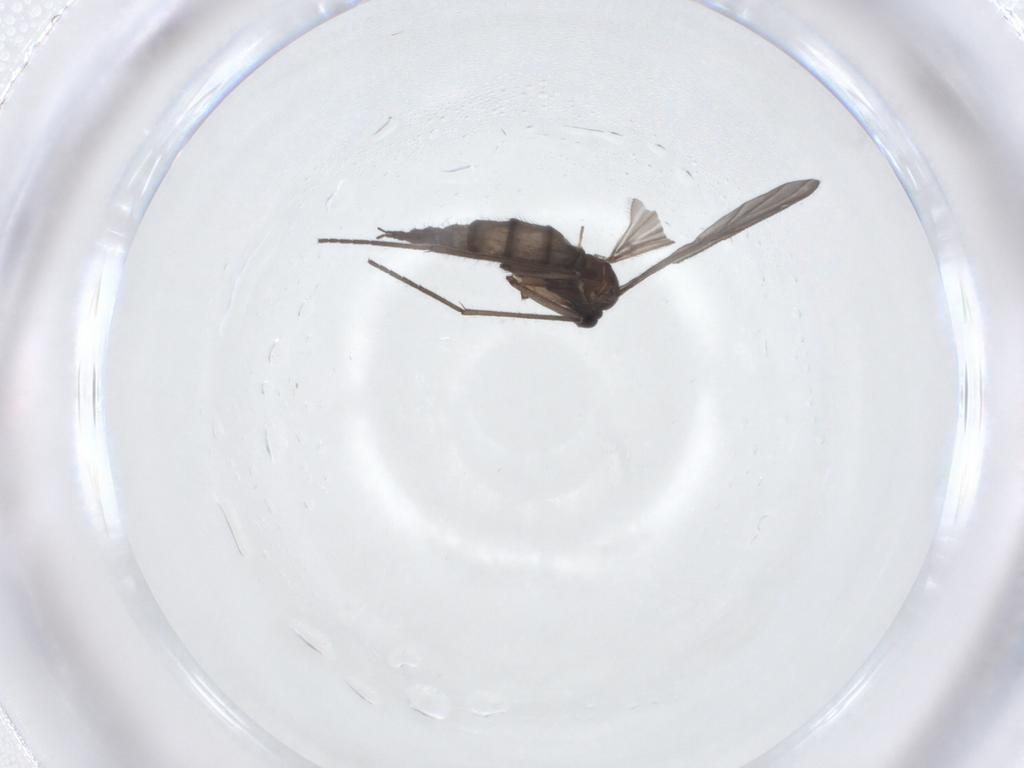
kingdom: Animalia
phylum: Arthropoda
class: Insecta
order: Diptera
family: Sciaridae
